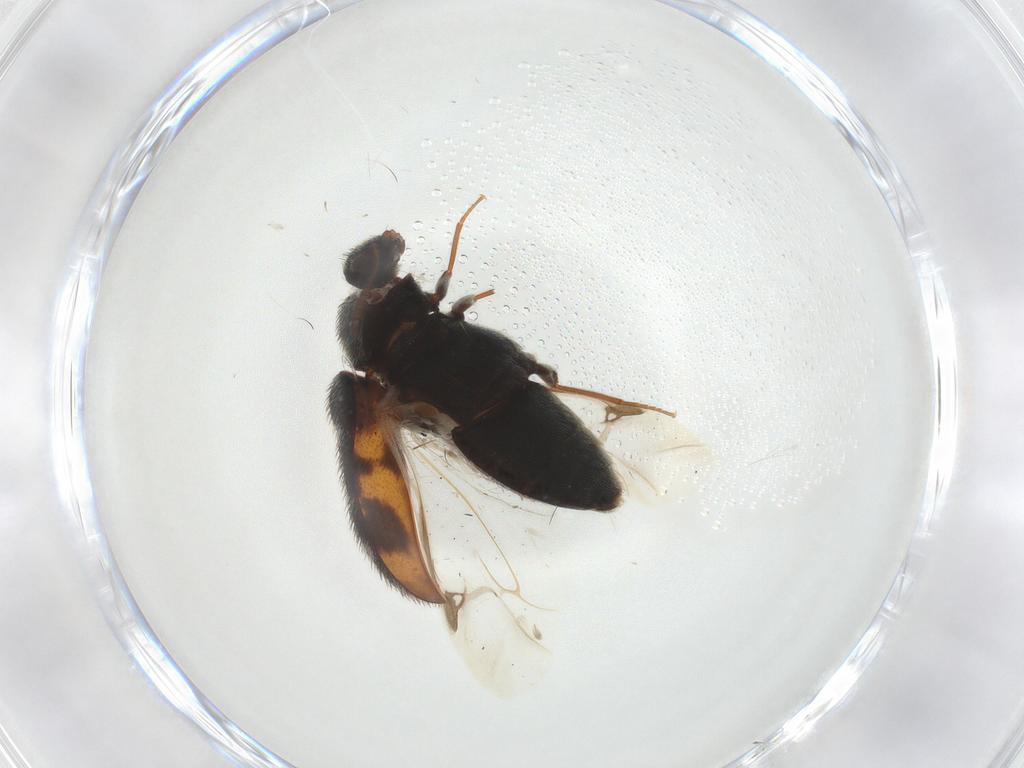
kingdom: Animalia
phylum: Arthropoda
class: Insecta
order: Coleoptera
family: Dermestidae
